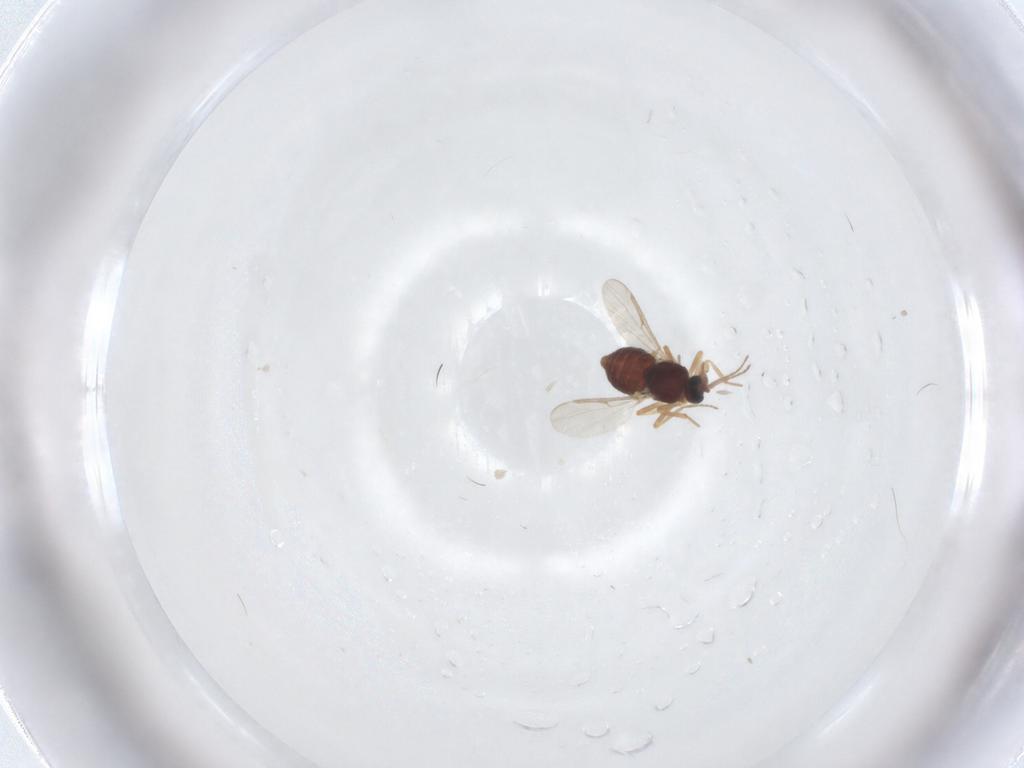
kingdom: Animalia
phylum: Arthropoda
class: Insecta
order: Diptera
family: Ceratopogonidae
